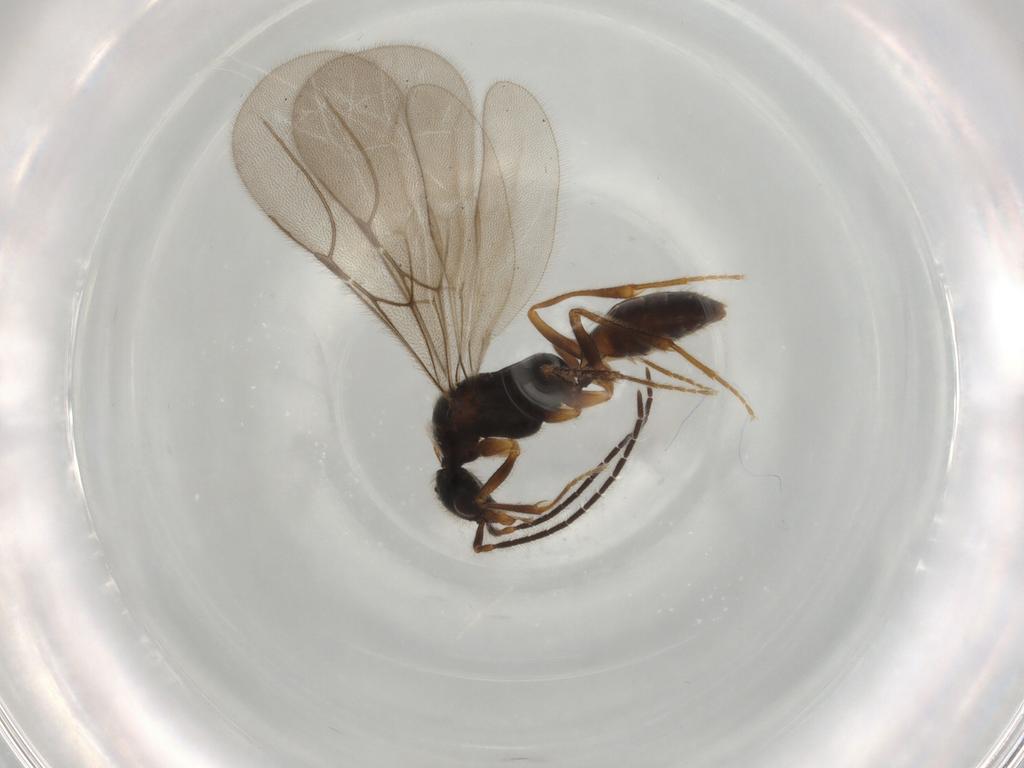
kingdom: Animalia
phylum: Arthropoda
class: Insecta
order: Hymenoptera
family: Bethylidae
